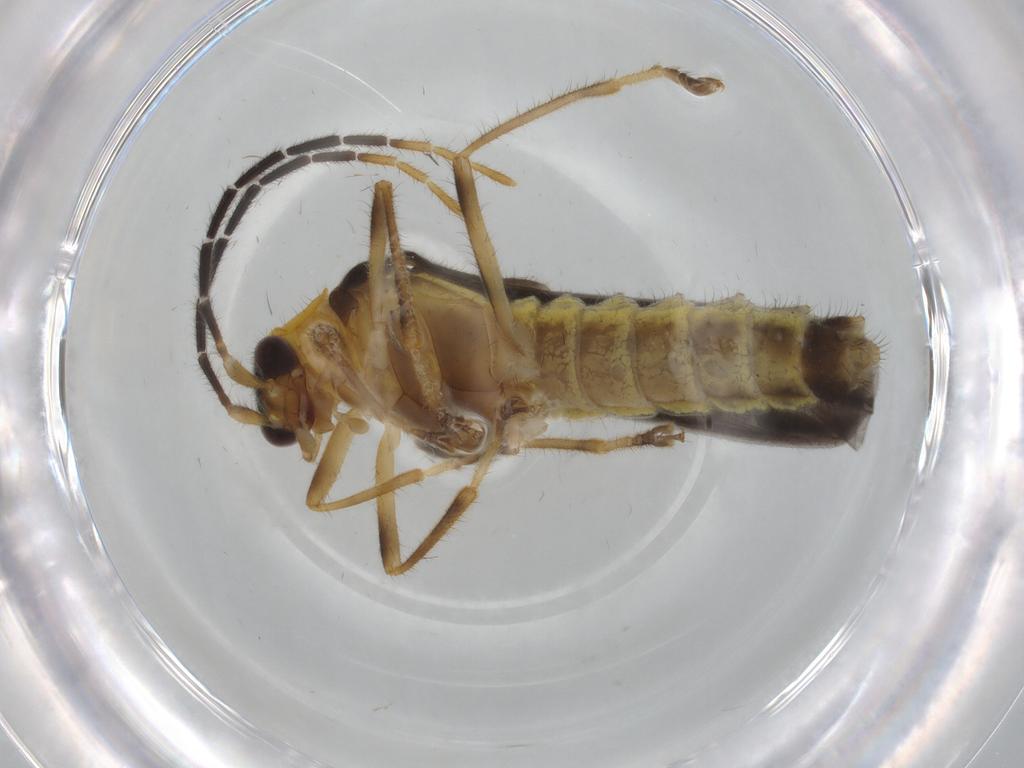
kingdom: Animalia
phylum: Arthropoda
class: Insecta
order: Coleoptera
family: Cantharidae
